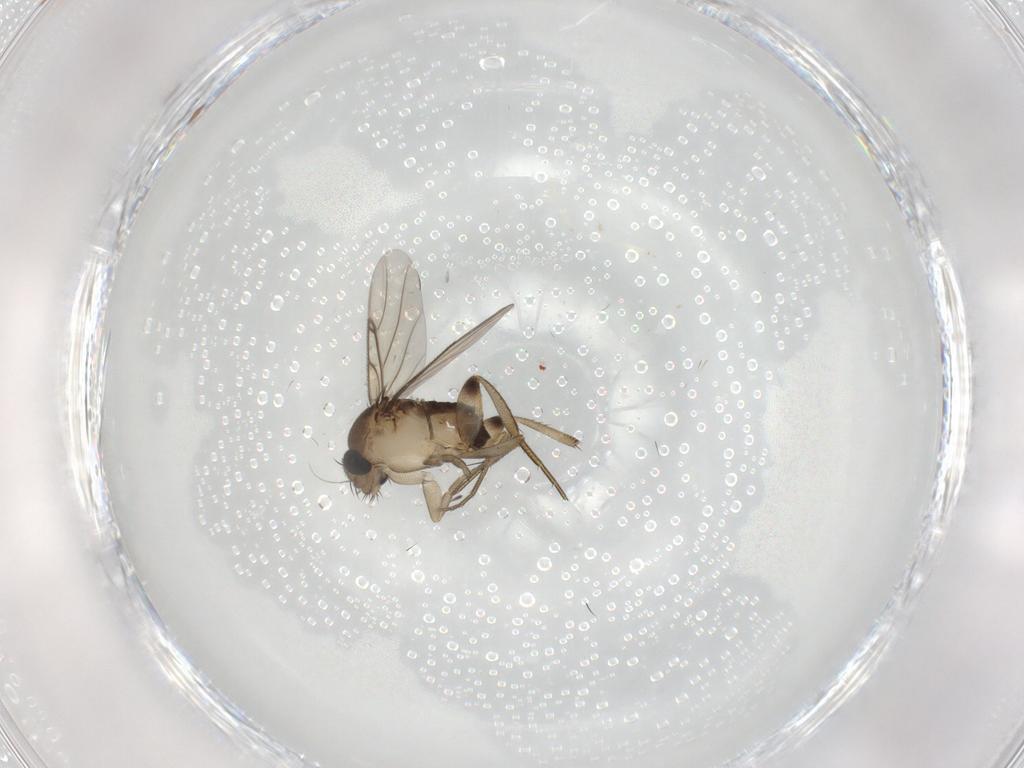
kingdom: Animalia
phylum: Arthropoda
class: Insecta
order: Diptera
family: Phoridae
